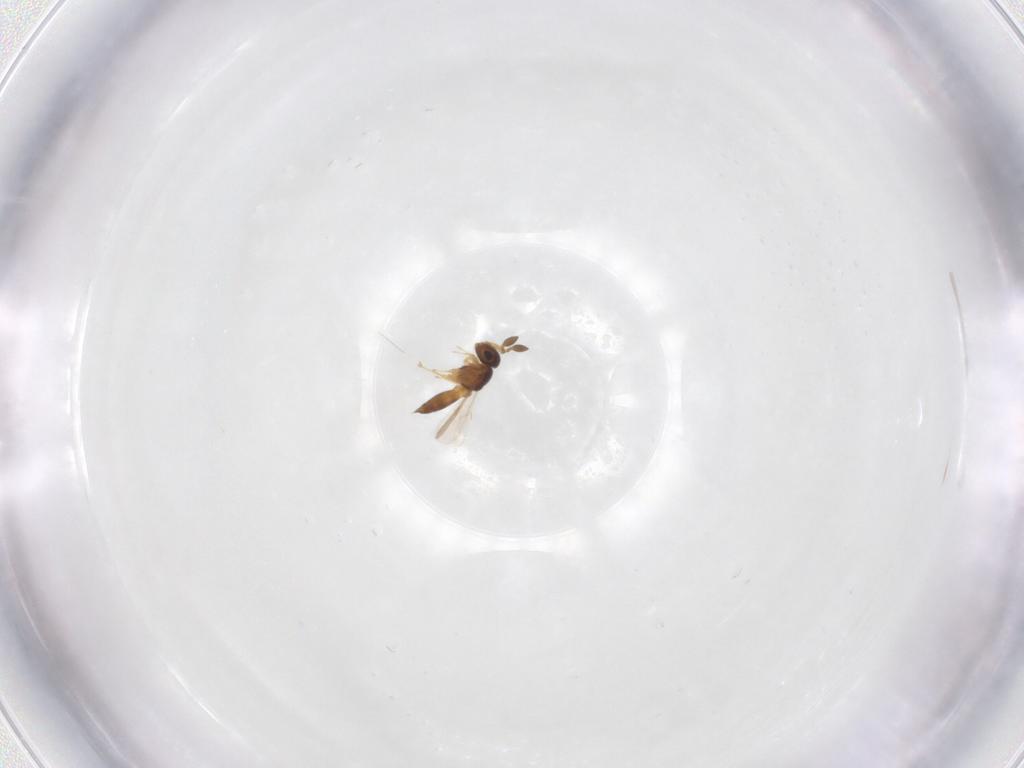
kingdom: Animalia
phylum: Arthropoda
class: Insecta
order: Hymenoptera
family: Scelionidae
